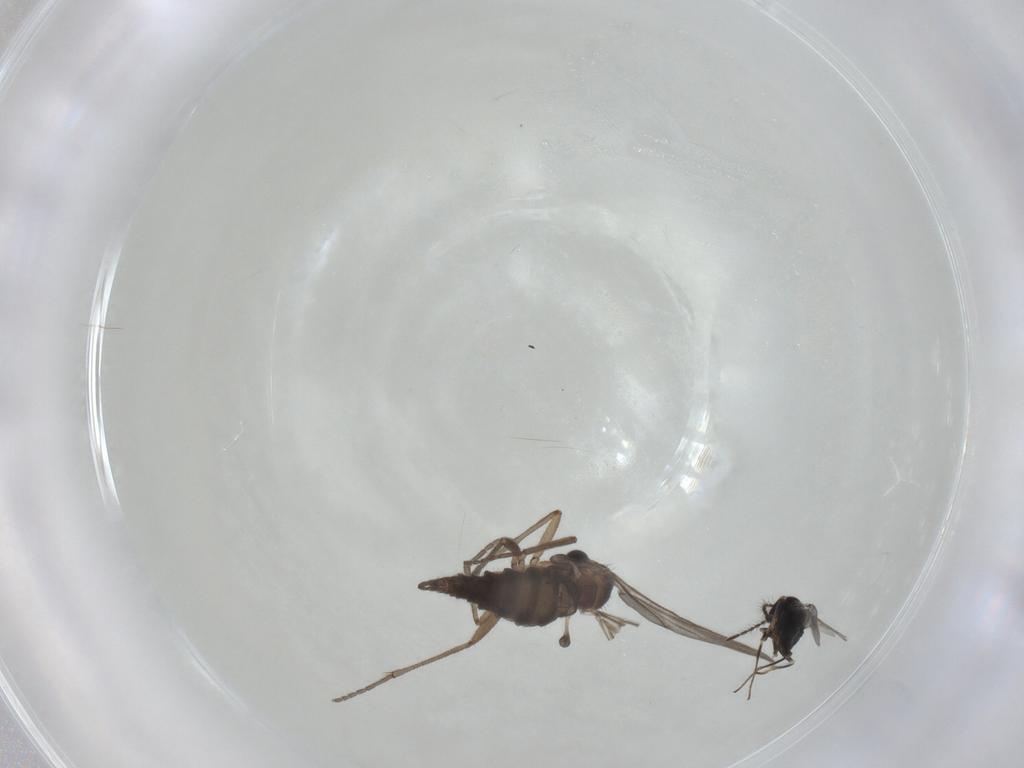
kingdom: Animalia
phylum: Arthropoda
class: Insecta
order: Diptera
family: Sciaridae
